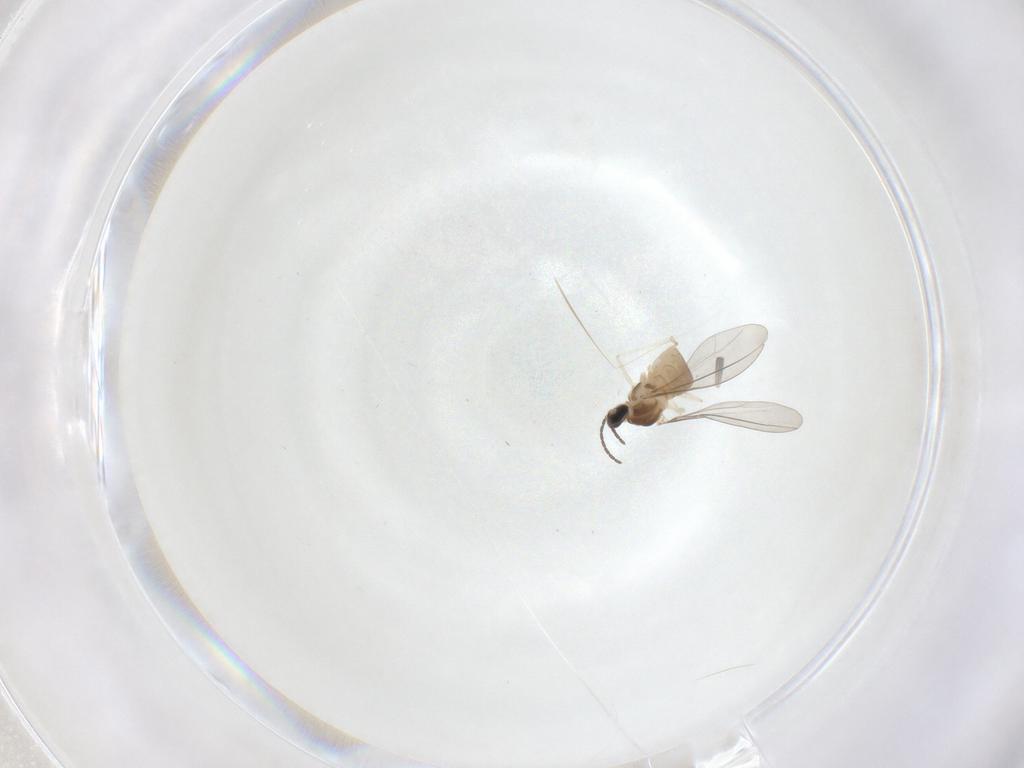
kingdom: Animalia
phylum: Arthropoda
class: Insecta
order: Diptera
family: Cecidomyiidae
